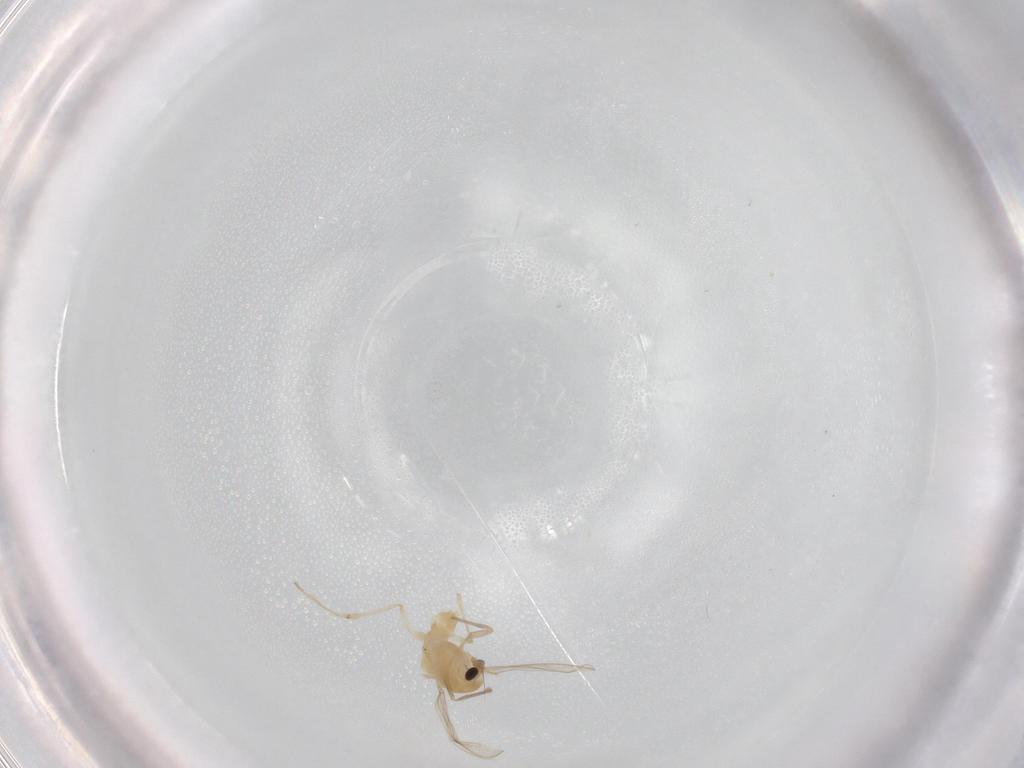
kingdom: Animalia
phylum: Arthropoda
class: Insecta
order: Diptera
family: Chironomidae
